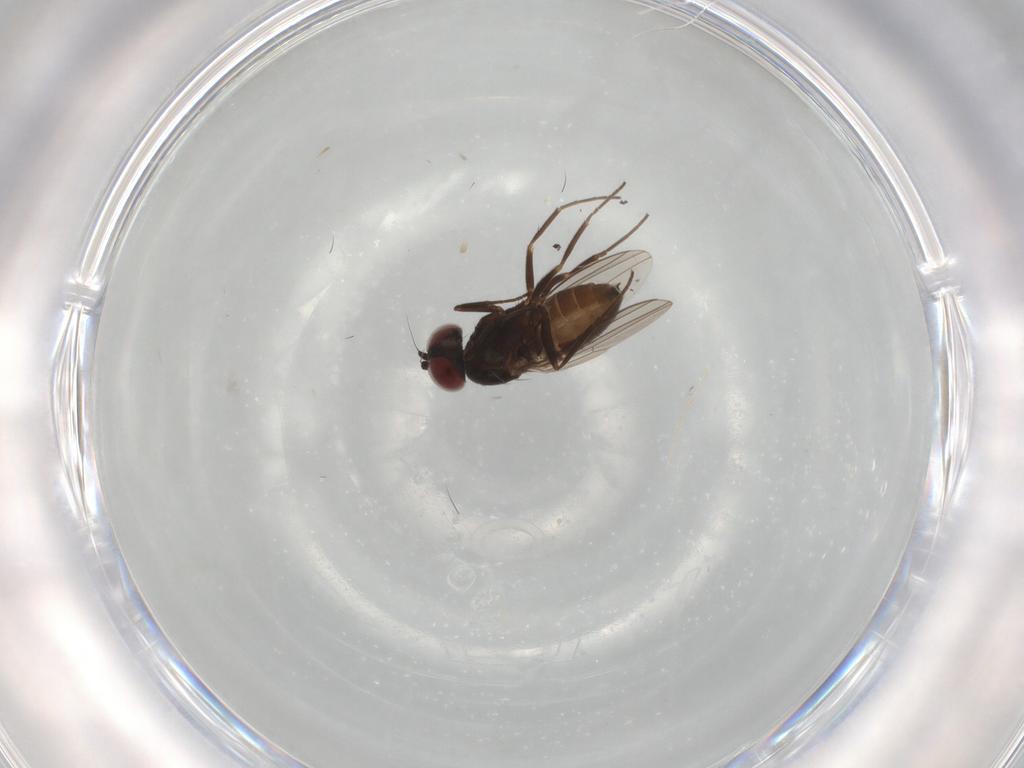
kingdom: Animalia
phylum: Arthropoda
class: Insecta
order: Diptera
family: Dolichopodidae
